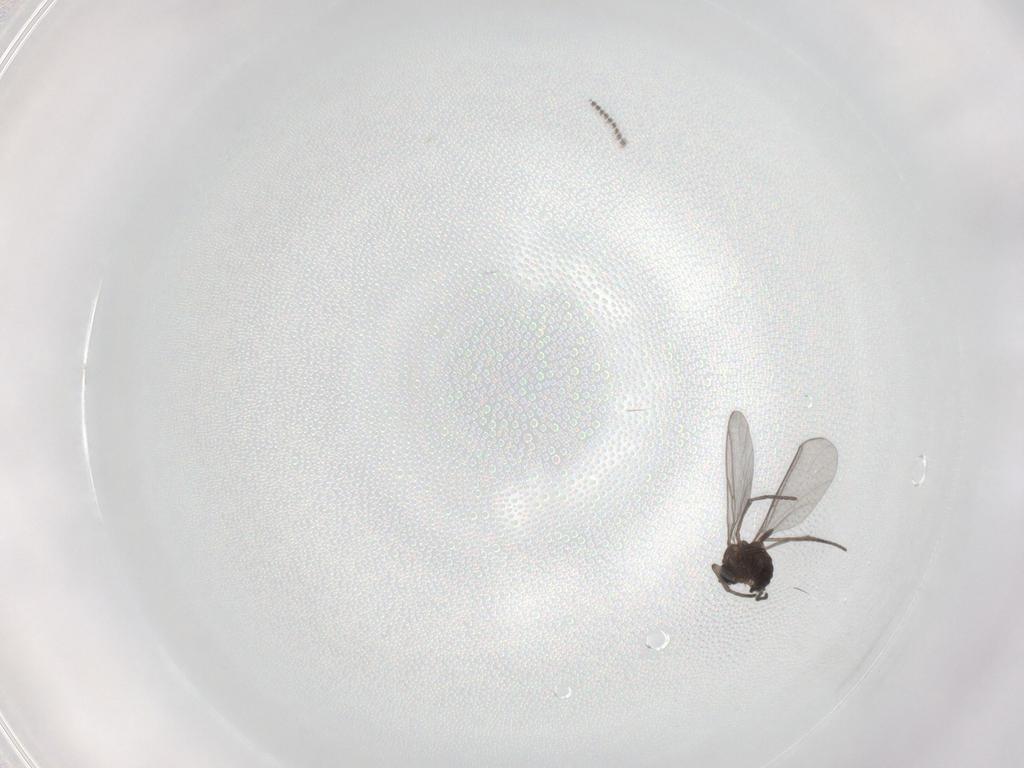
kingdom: Animalia
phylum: Arthropoda
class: Insecta
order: Diptera
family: Sciaridae
